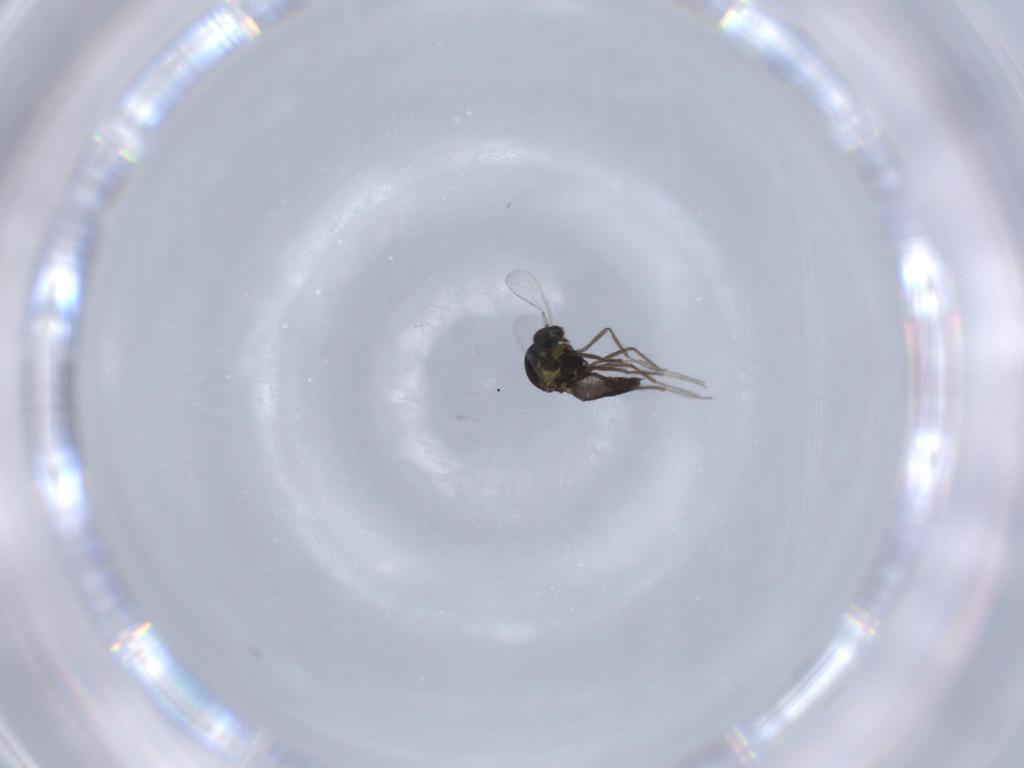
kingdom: Animalia
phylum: Arthropoda
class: Insecta
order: Diptera
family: Ceratopogonidae
